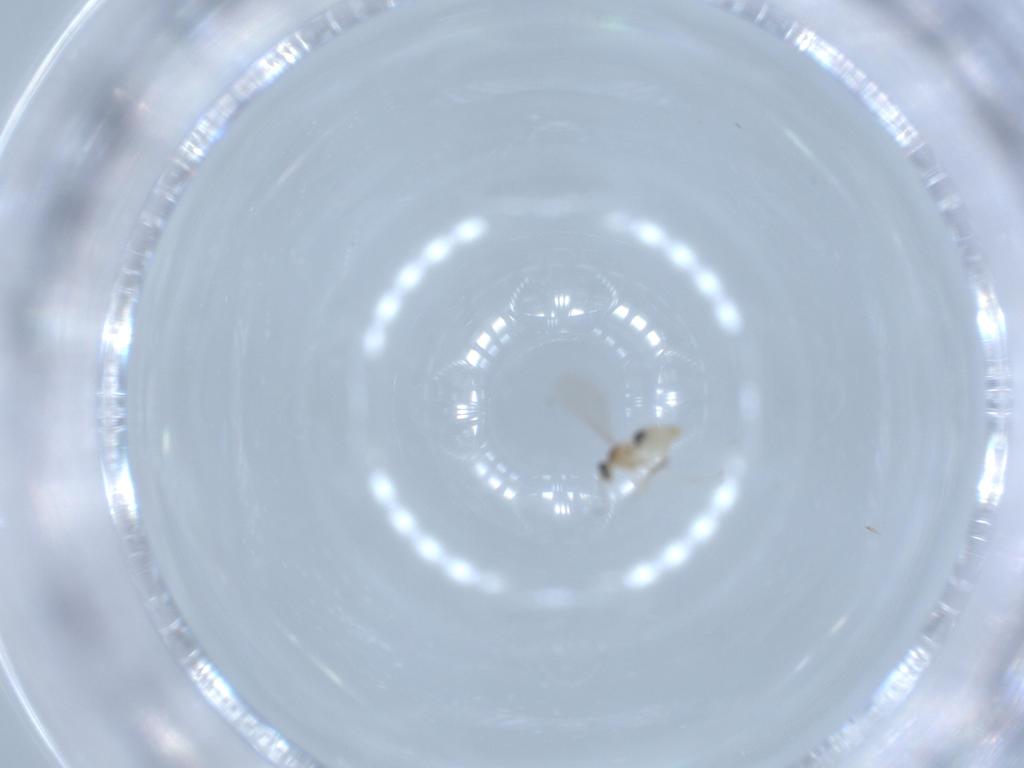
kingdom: Animalia
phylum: Arthropoda
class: Insecta
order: Diptera
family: Cecidomyiidae
